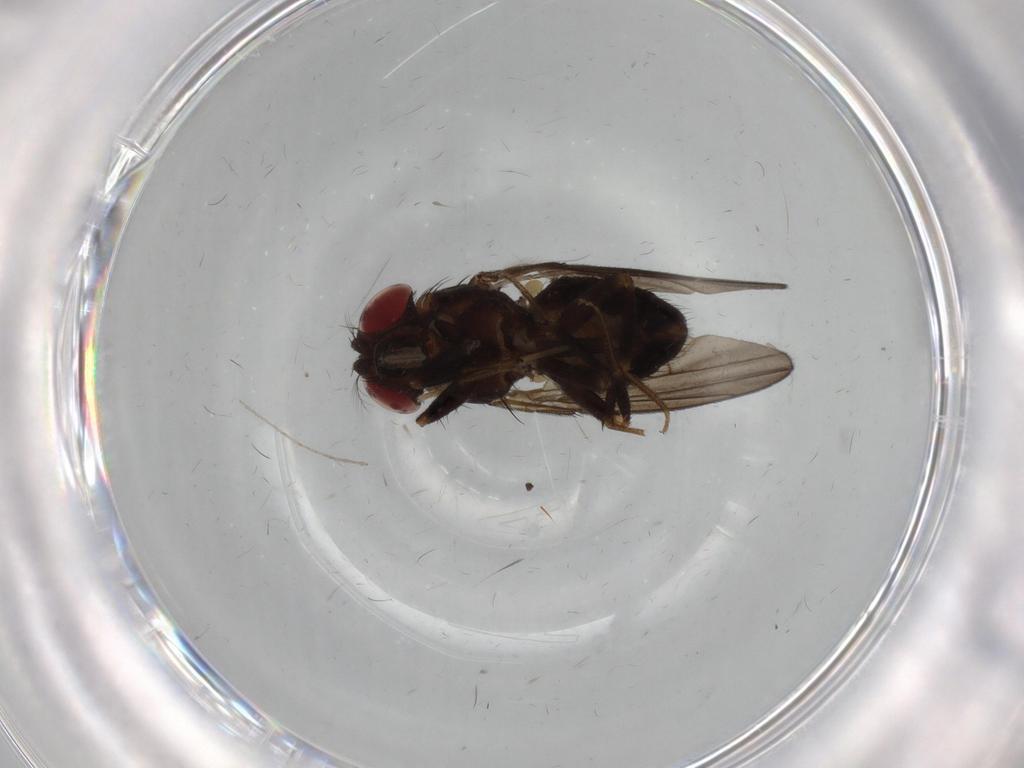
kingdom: Animalia
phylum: Arthropoda
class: Insecta
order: Diptera
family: Drosophilidae
